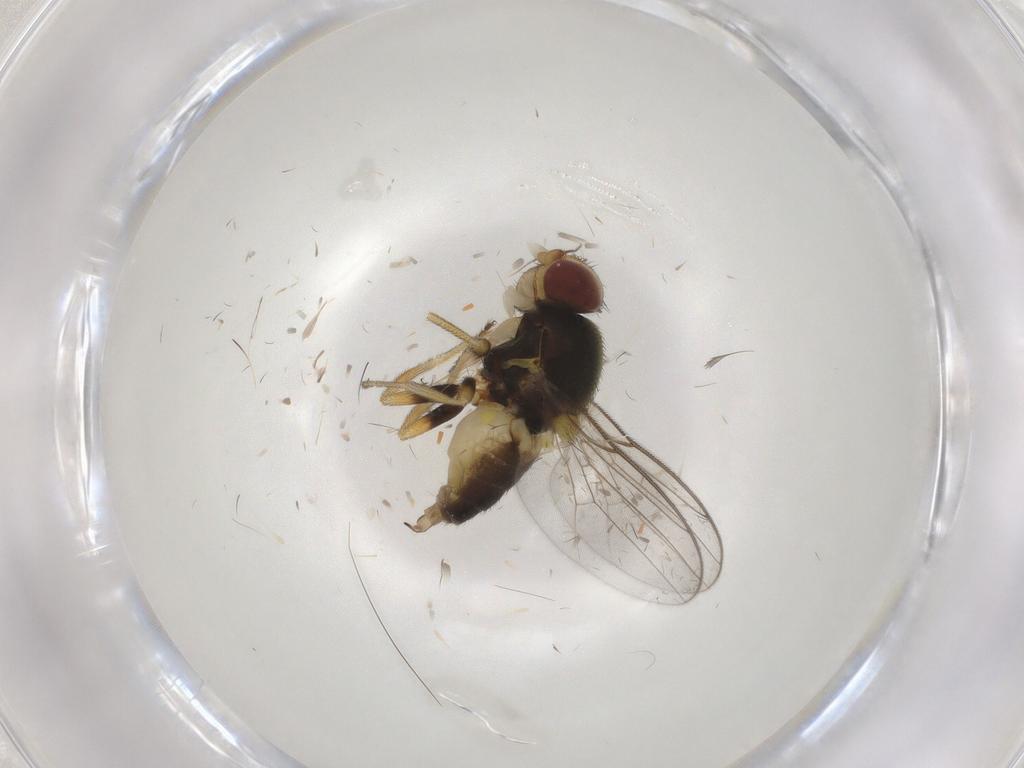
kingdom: Animalia
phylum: Arthropoda
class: Insecta
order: Diptera
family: Chloropidae
